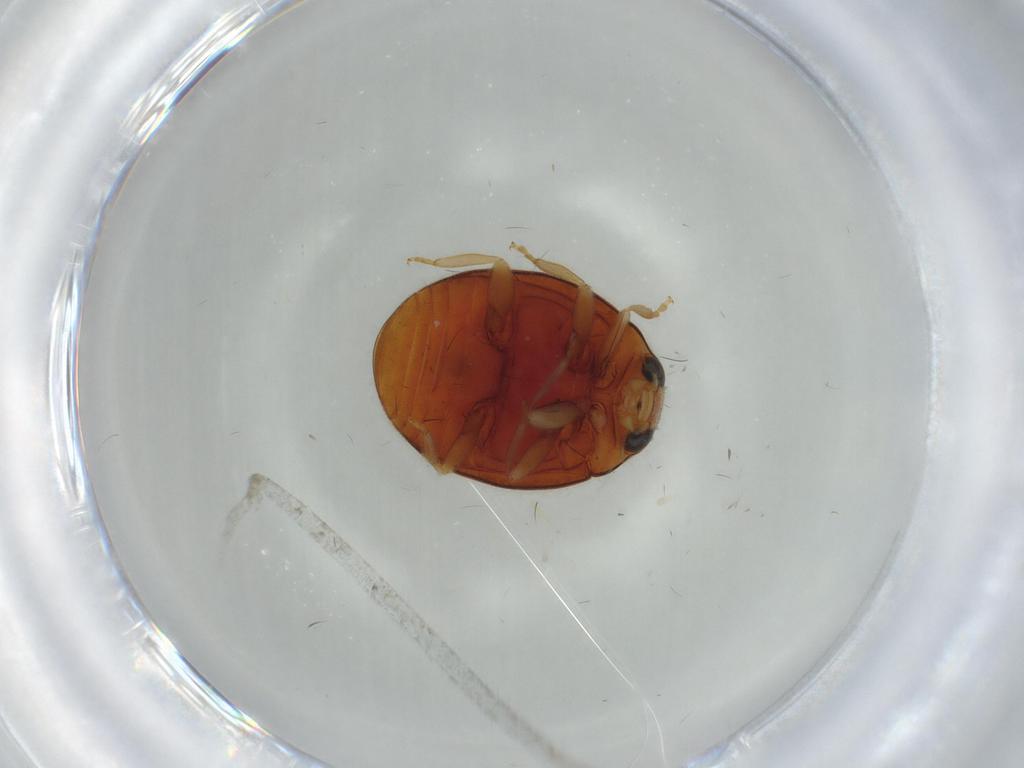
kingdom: Animalia
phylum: Arthropoda
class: Insecta
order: Coleoptera
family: Coccinellidae
